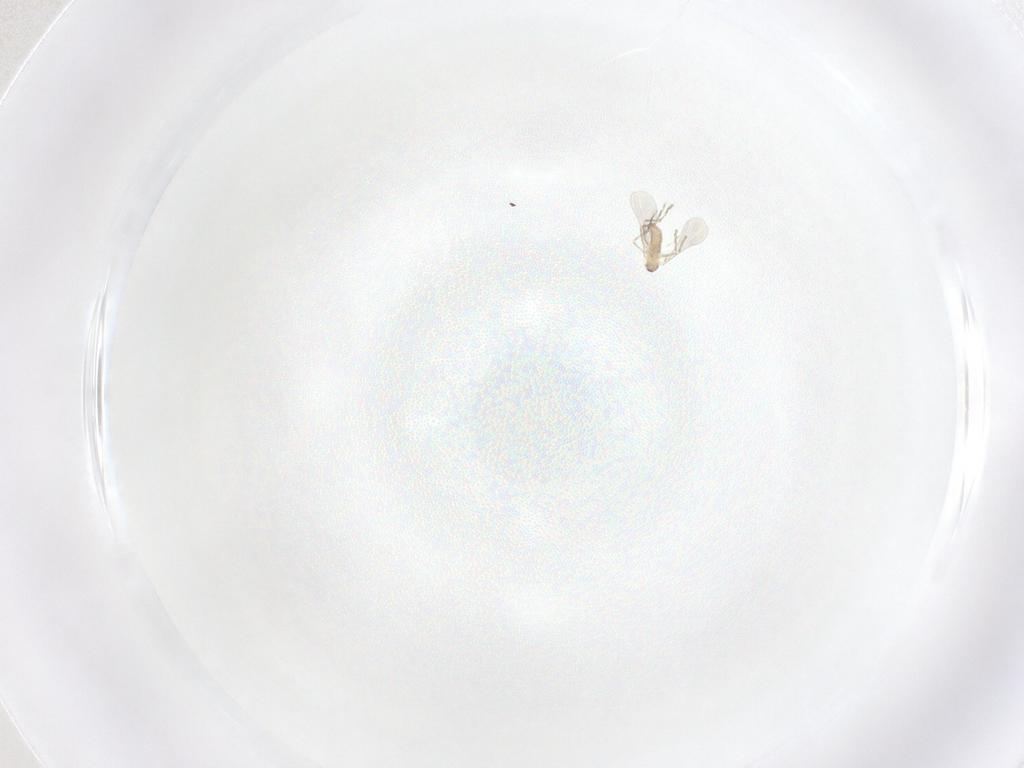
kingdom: Animalia
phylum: Arthropoda
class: Insecta
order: Diptera
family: Cecidomyiidae
